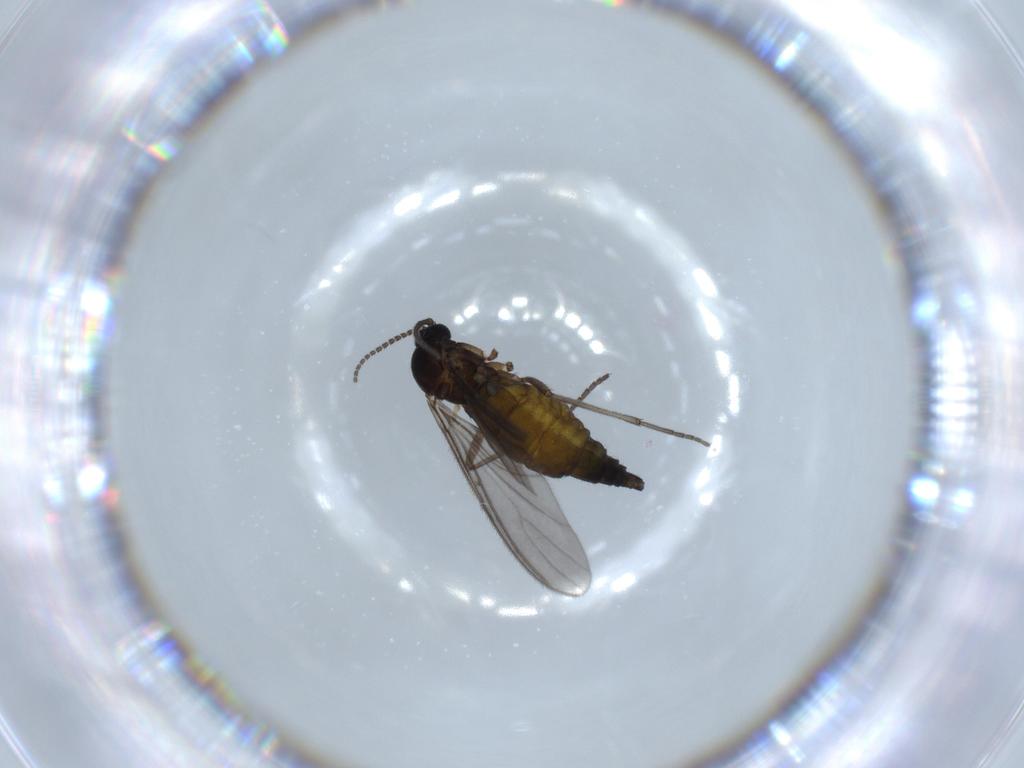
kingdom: Animalia
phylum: Arthropoda
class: Insecta
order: Diptera
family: Sciaridae
